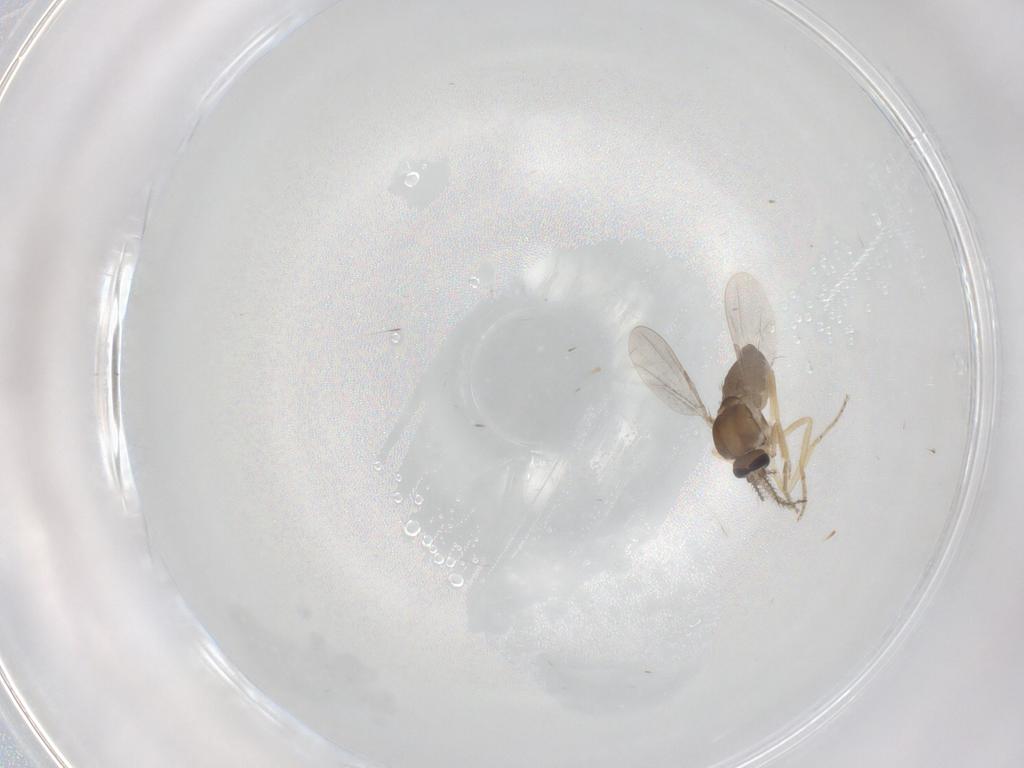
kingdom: Animalia
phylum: Arthropoda
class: Insecta
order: Diptera
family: Ceratopogonidae
